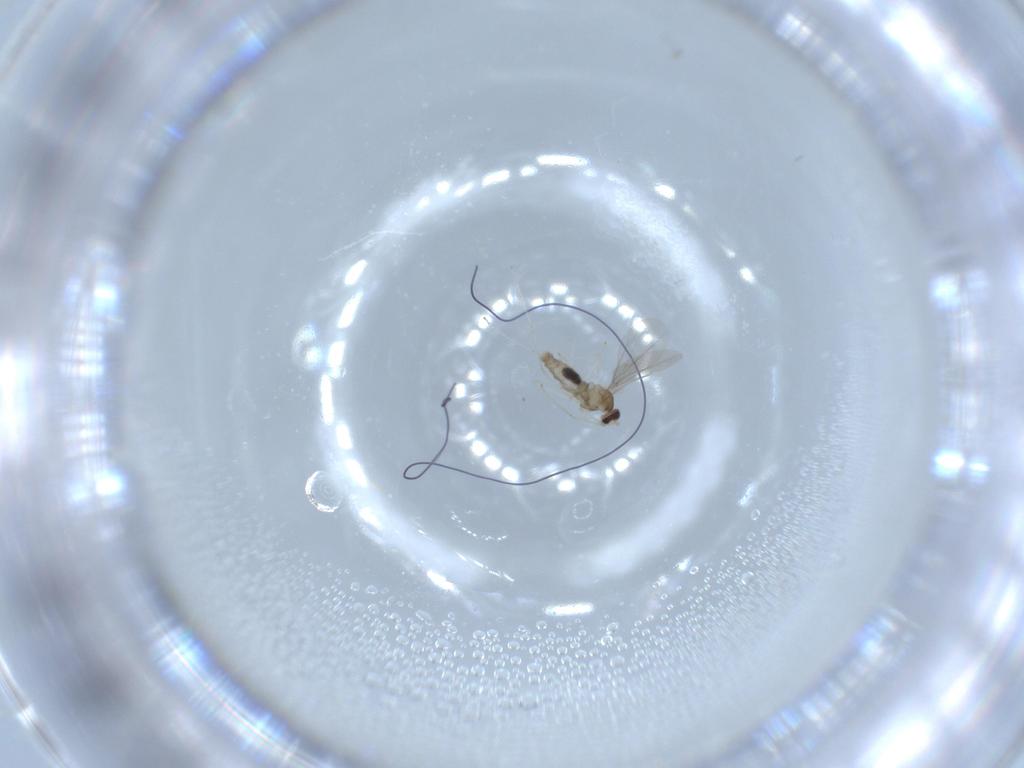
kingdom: Animalia
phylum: Arthropoda
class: Insecta
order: Diptera
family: Cecidomyiidae
